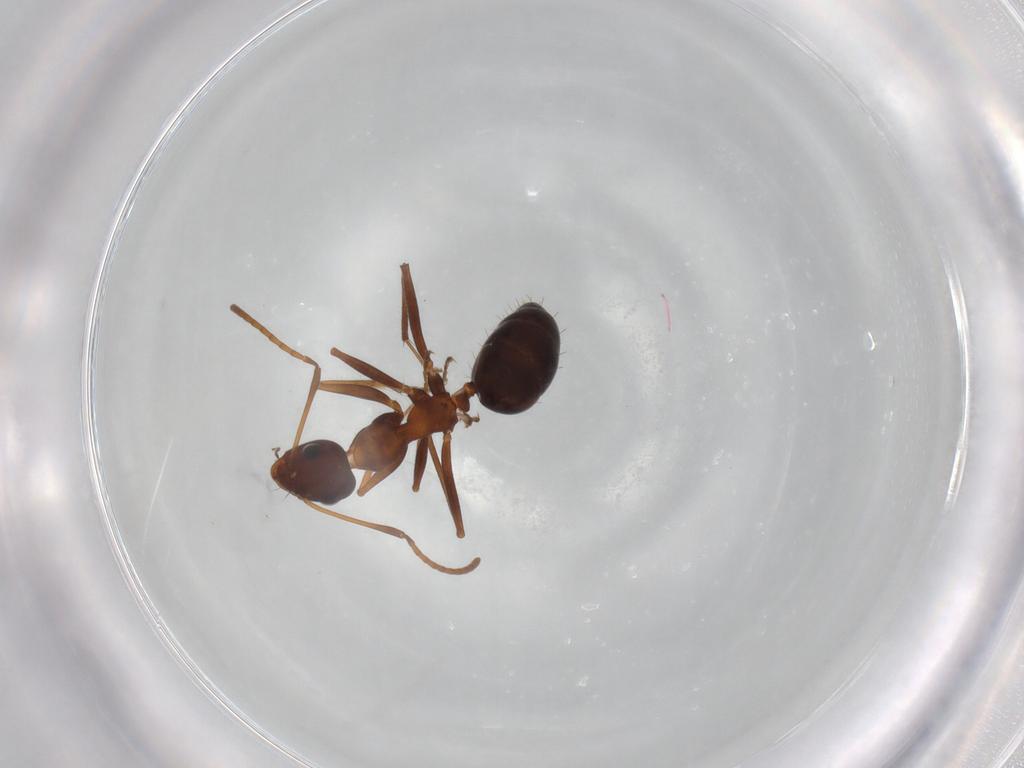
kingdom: Animalia
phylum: Arthropoda
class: Insecta
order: Hymenoptera
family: Formicidae
